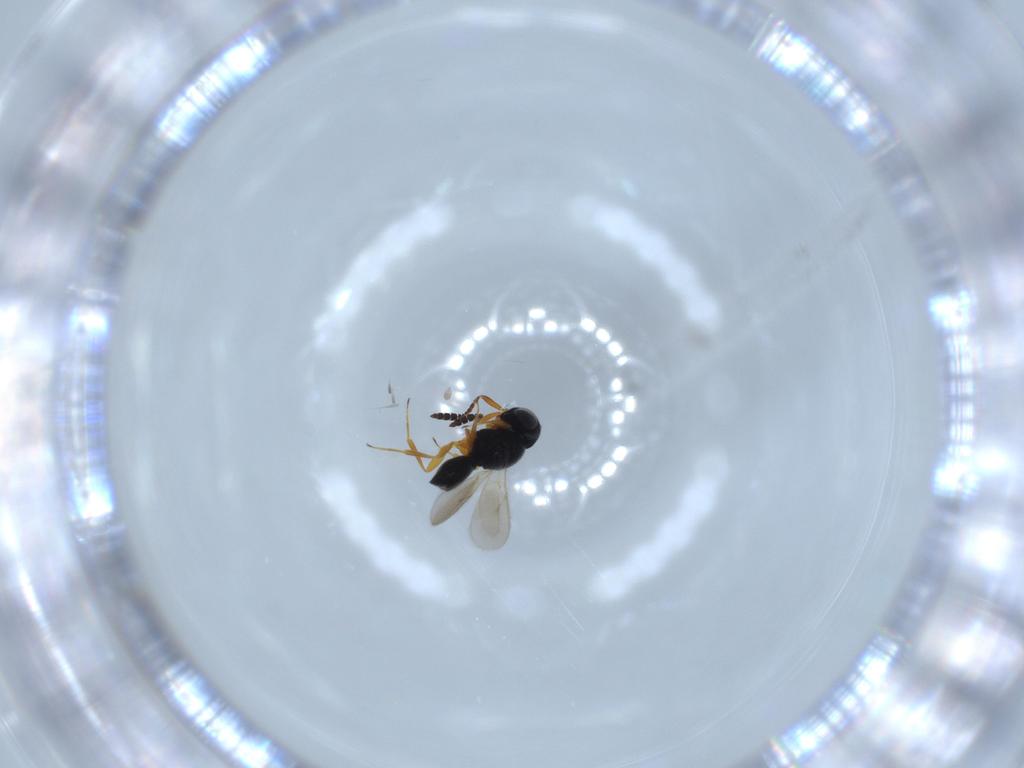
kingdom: Animalia
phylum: Arthropoda
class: Insecta
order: Hymenoptera
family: Scelionidae
